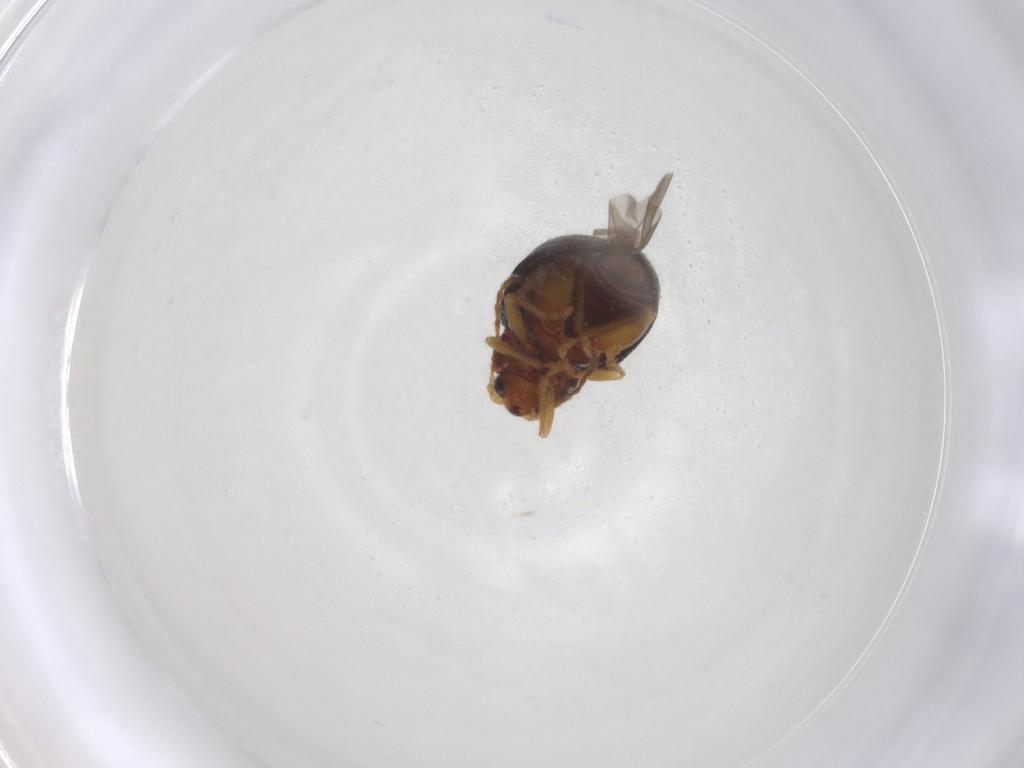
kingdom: Animalia
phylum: Arthropoda
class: Insecta
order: Coleoptera
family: Chrysomelidae
